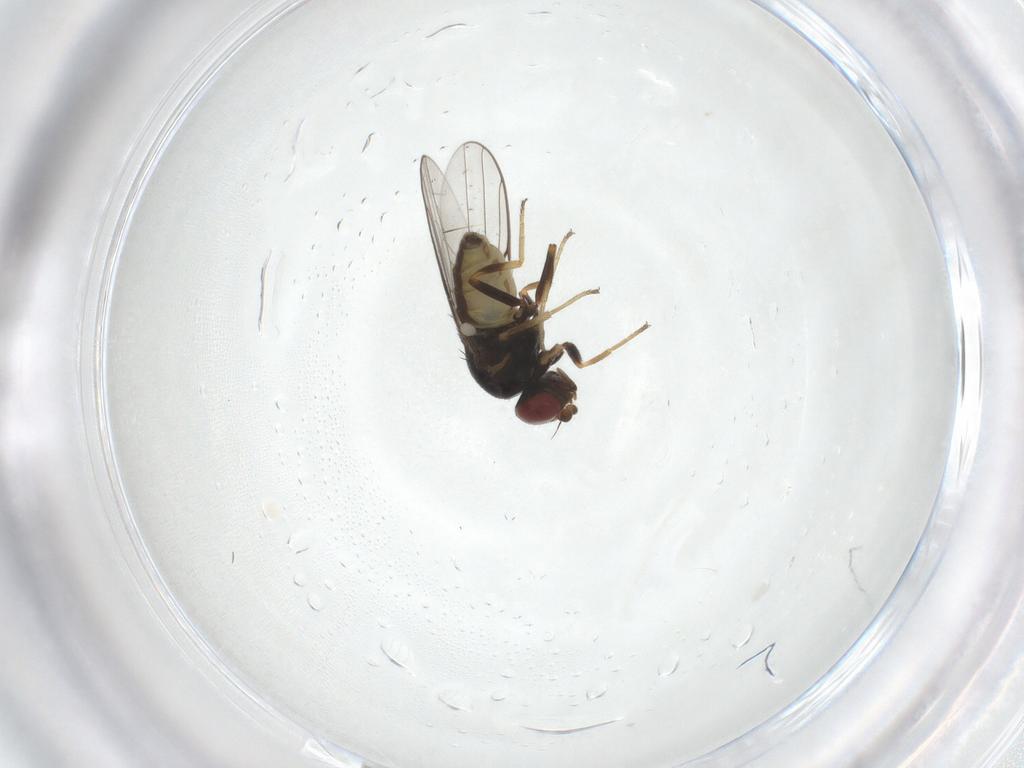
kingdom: Animalia
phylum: Arthropoda
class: Insecta
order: Diptera
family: Chloropidae
